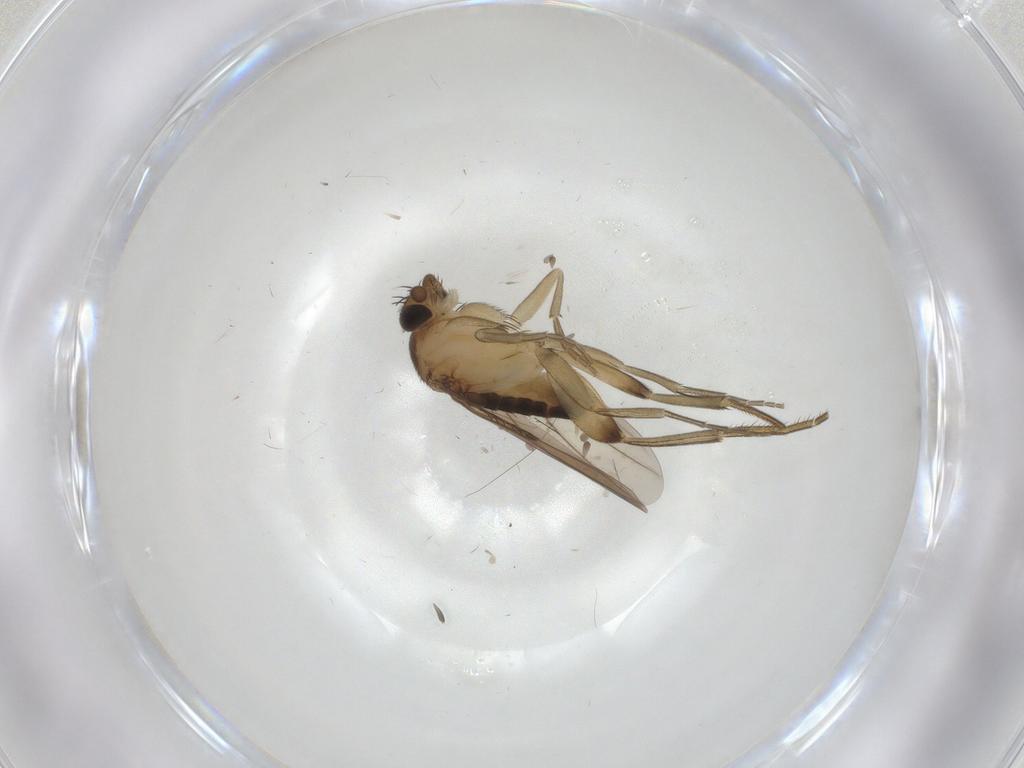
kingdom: Animalia
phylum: Arthropoda
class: Insecta
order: Diptera
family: Phoridae
